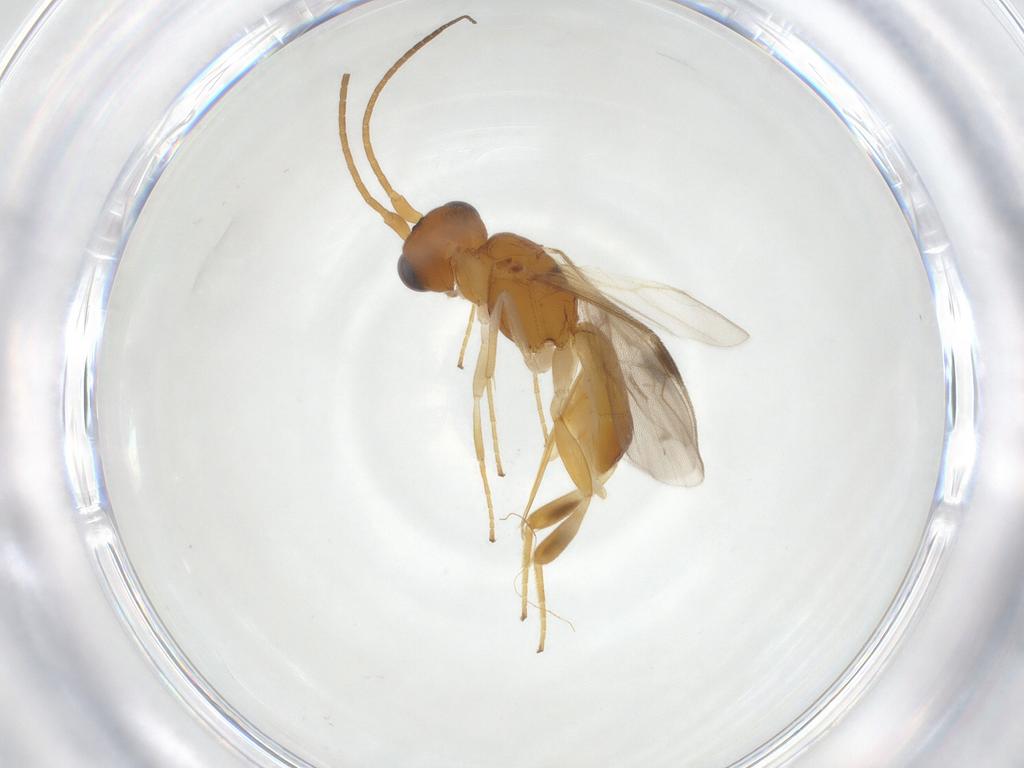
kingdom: Animalia
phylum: Arthropoda
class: Insecta
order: Hymenoptera
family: Braconidae
